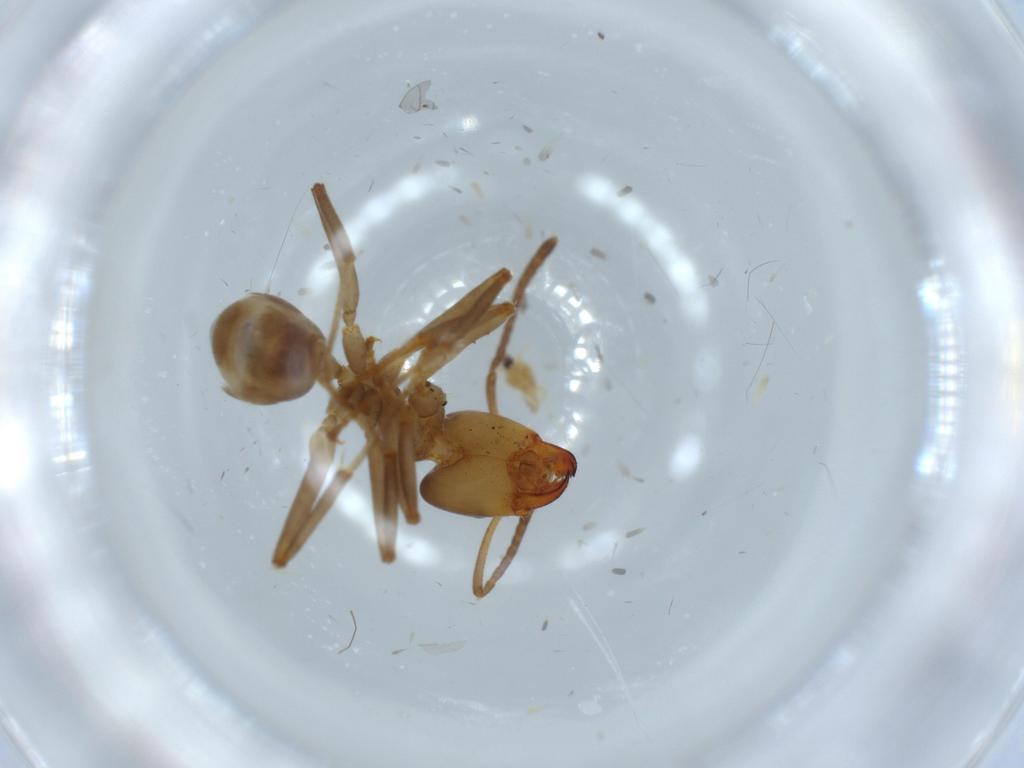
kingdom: Animalia
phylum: Arthropoda
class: Insecta
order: Hymenoptera
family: Formicidae
